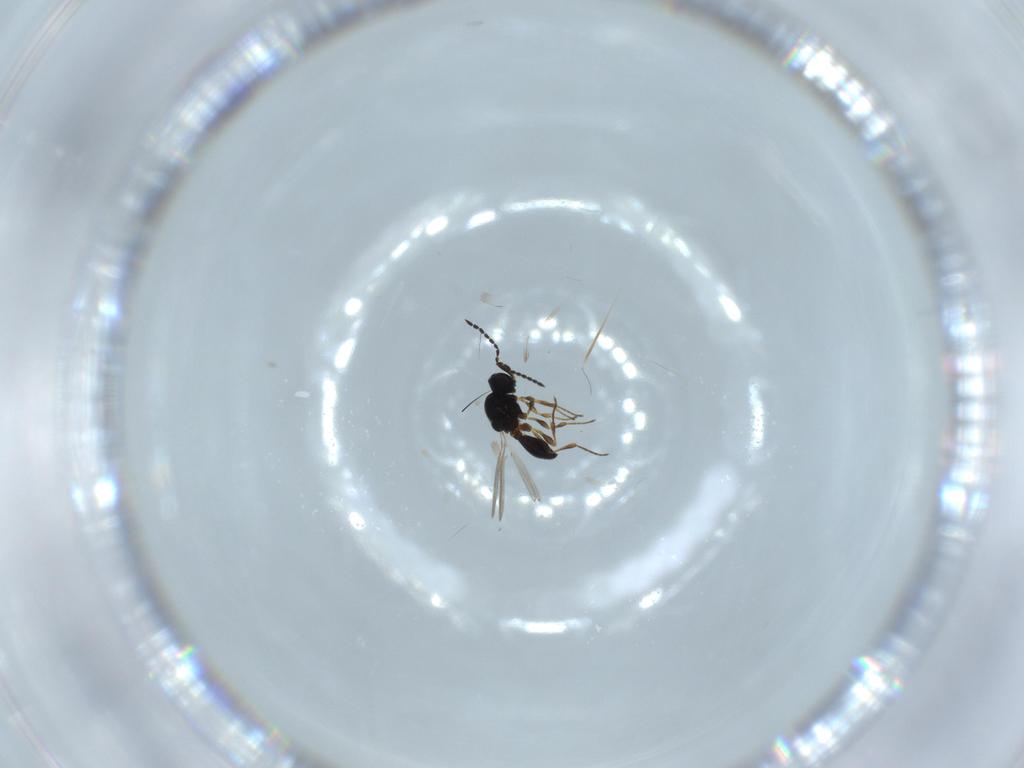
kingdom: Animalia
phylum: Arthropoda
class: Insecta
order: Hymenoptera
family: Platygastridae
